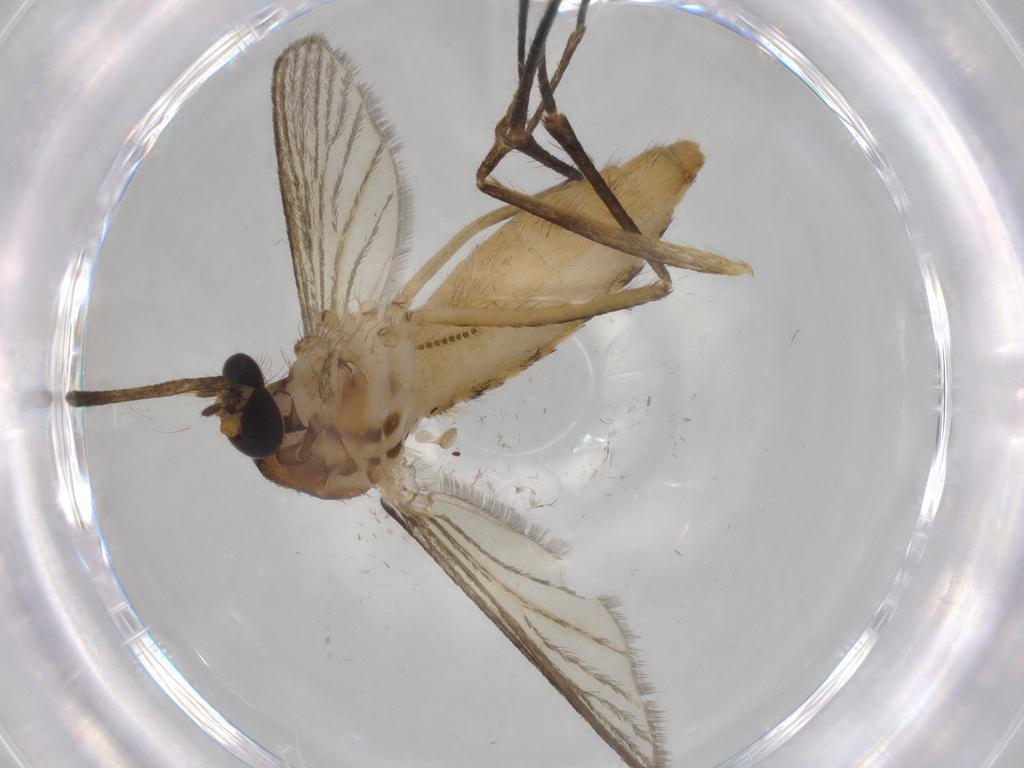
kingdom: Animalia
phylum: Arthropoda
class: Insecta
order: Diptera
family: Culicidae
